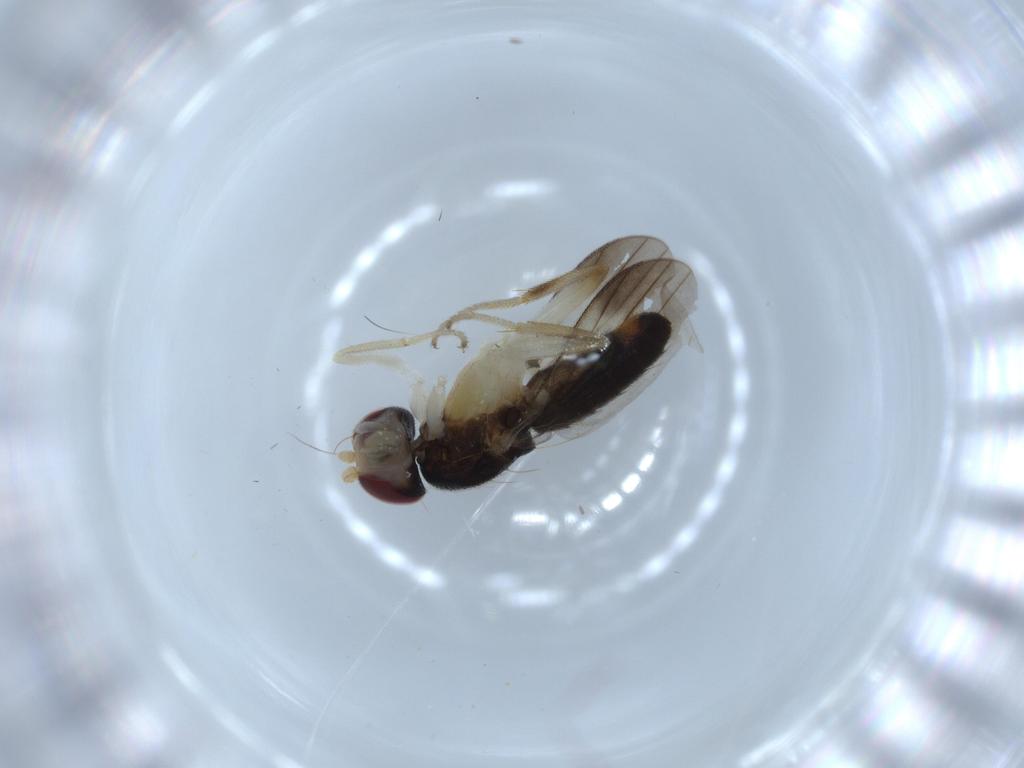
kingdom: Animalia
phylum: Arthropoda
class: Insecta
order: Diptera
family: Clusiidae
